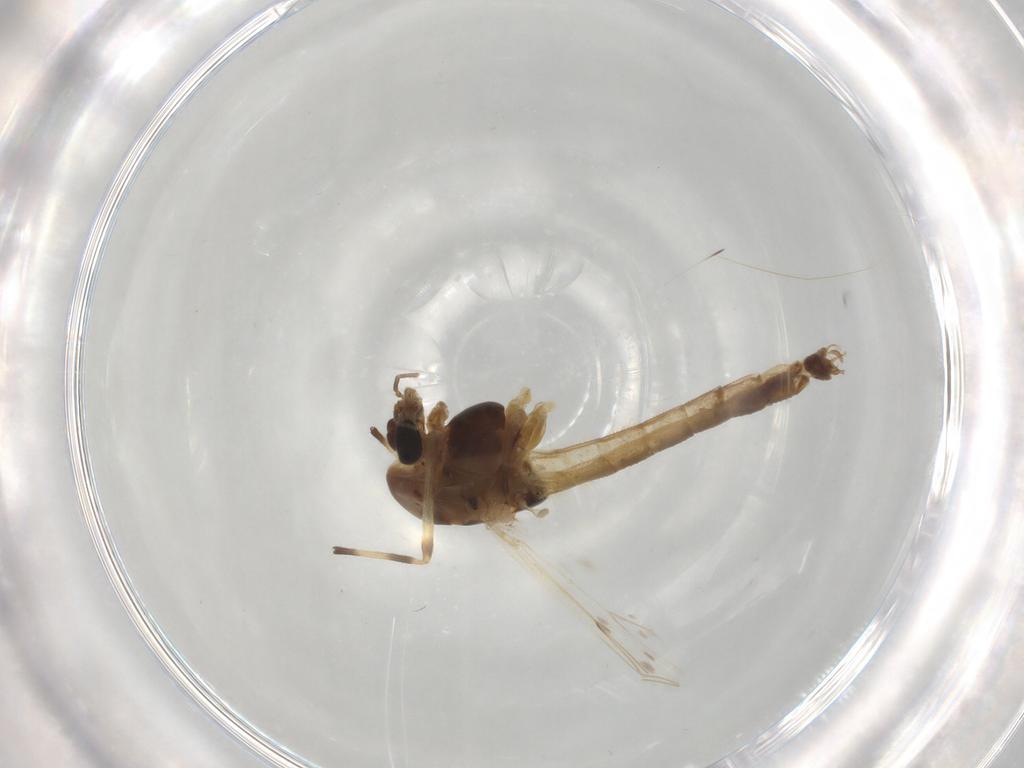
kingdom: Animalia
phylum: Arthropoda
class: Insecta
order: Diptera
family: Chironomidae
